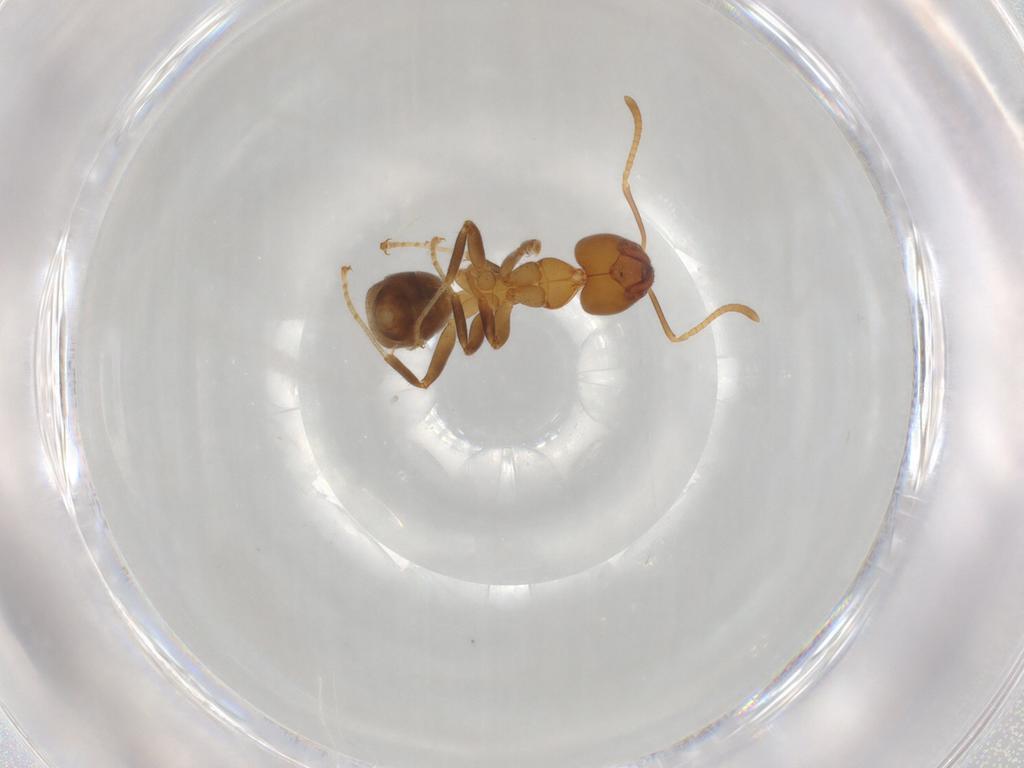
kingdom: Animalia
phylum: Arthropoda
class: Insecta
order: Hymenoptera
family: Formicidae
